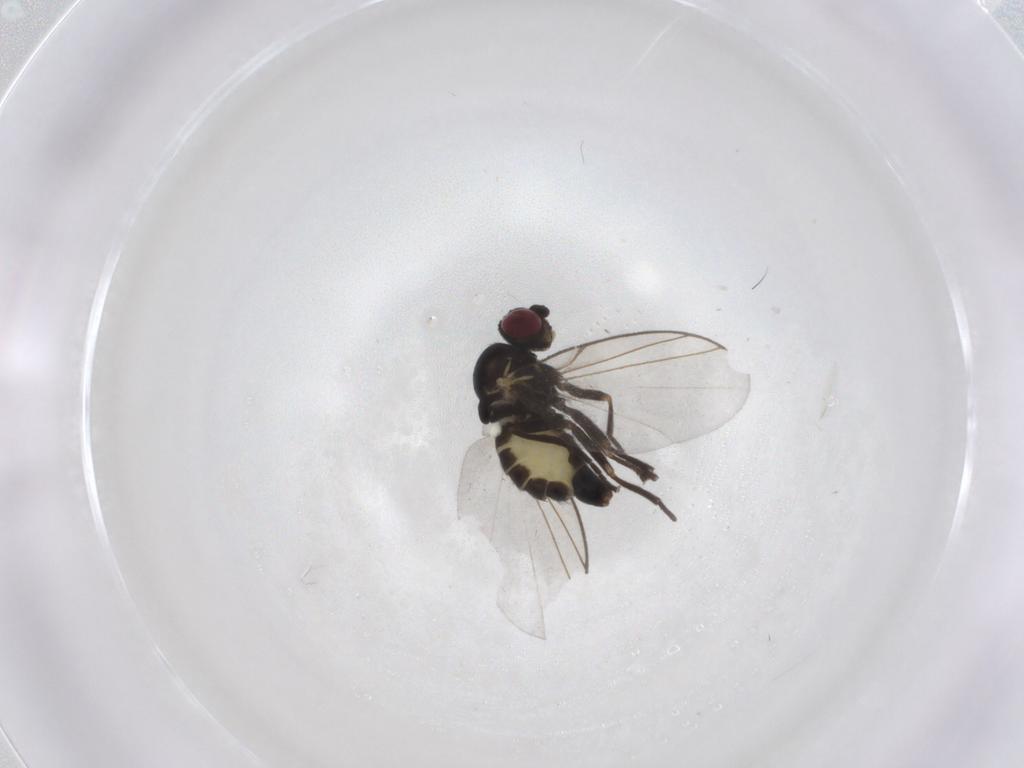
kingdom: Animalia
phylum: Arthropoda
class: Insecta
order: Diptera
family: Agromyzidae
